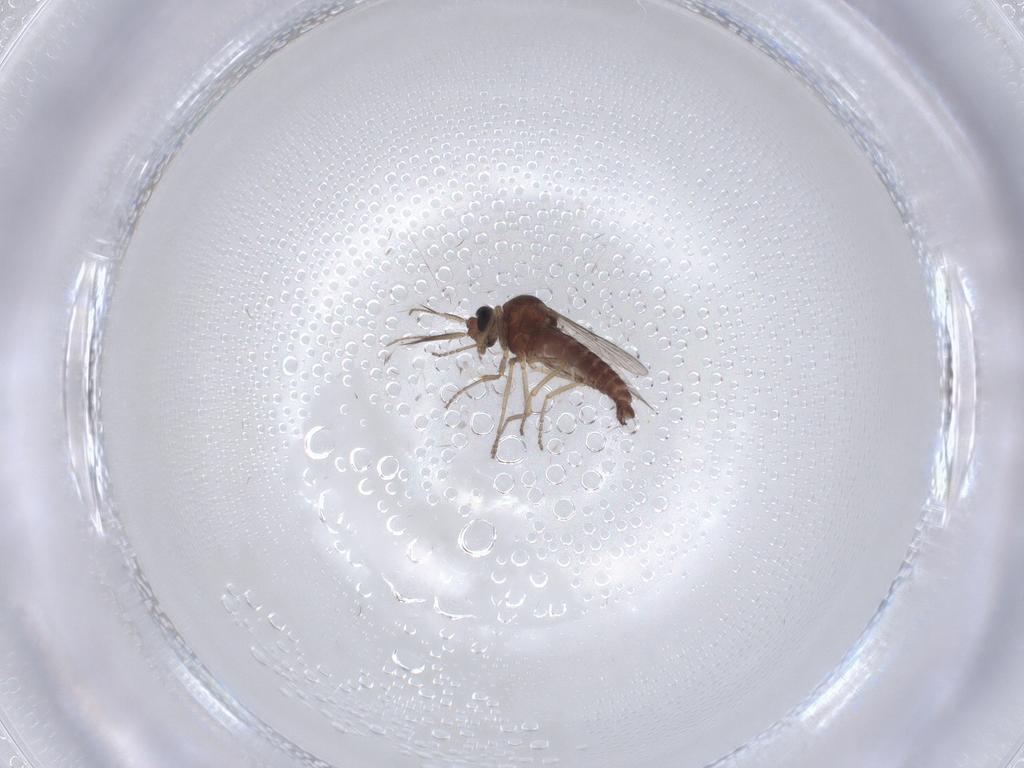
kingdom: Animalia
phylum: Arthropoda
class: Insecta
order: Diptera
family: Ceratopogonidae
